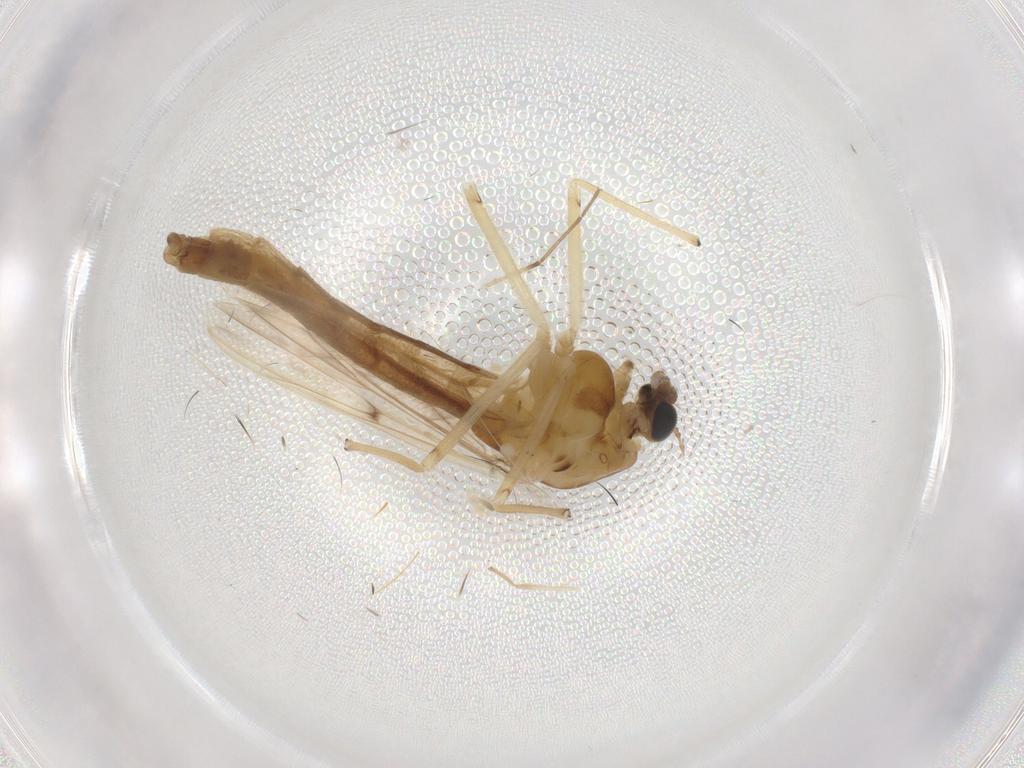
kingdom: Animalia
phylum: Arthropoda
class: Insecta
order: Diptera
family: Chironomidae
